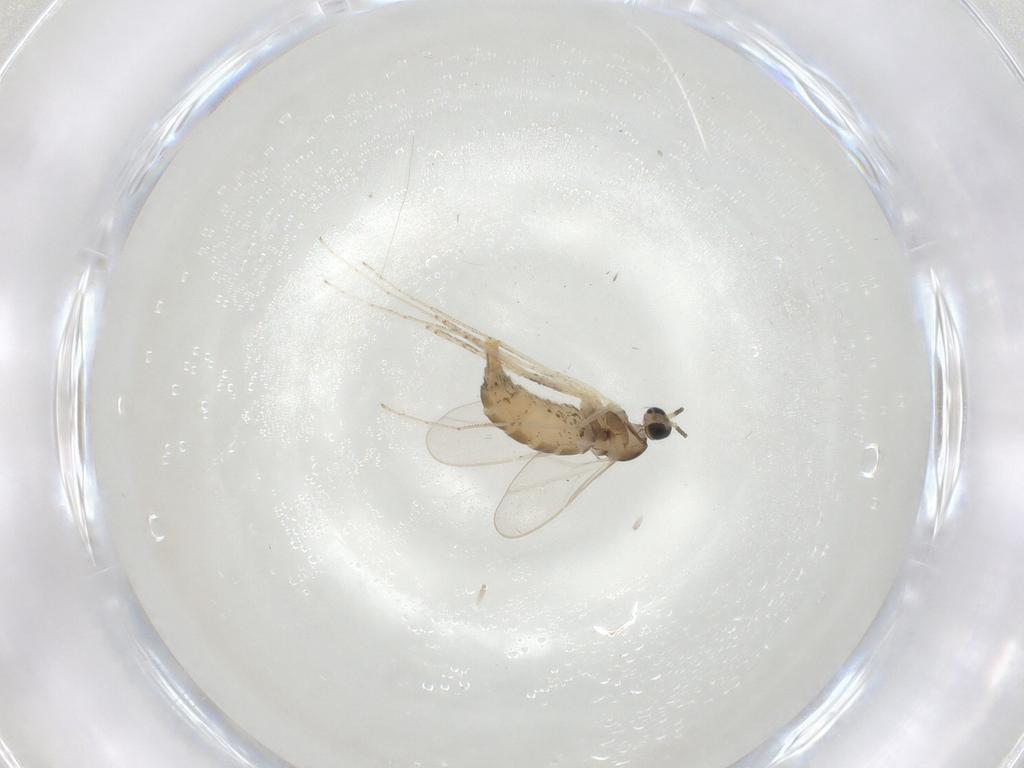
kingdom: Animalia
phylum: Arthropoda
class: Insecta
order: Diptera
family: Cecidomyiidae
